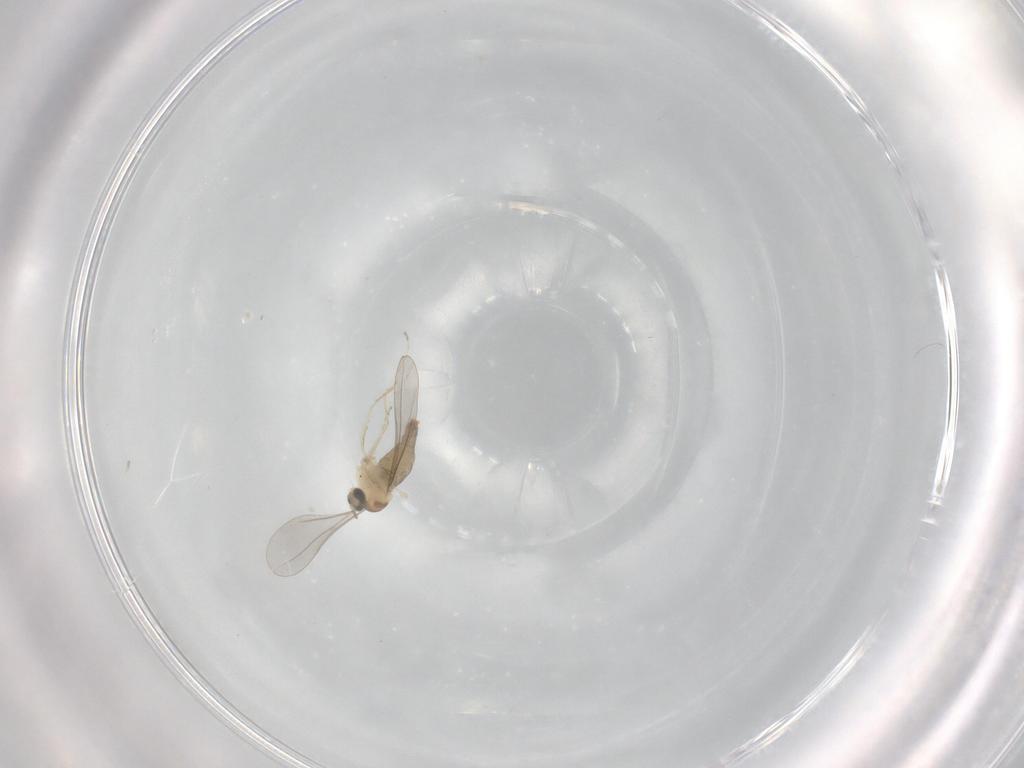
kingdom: Animalia
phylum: Arthropoda
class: Insecta
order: Diptera
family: Cecidomyiidae
